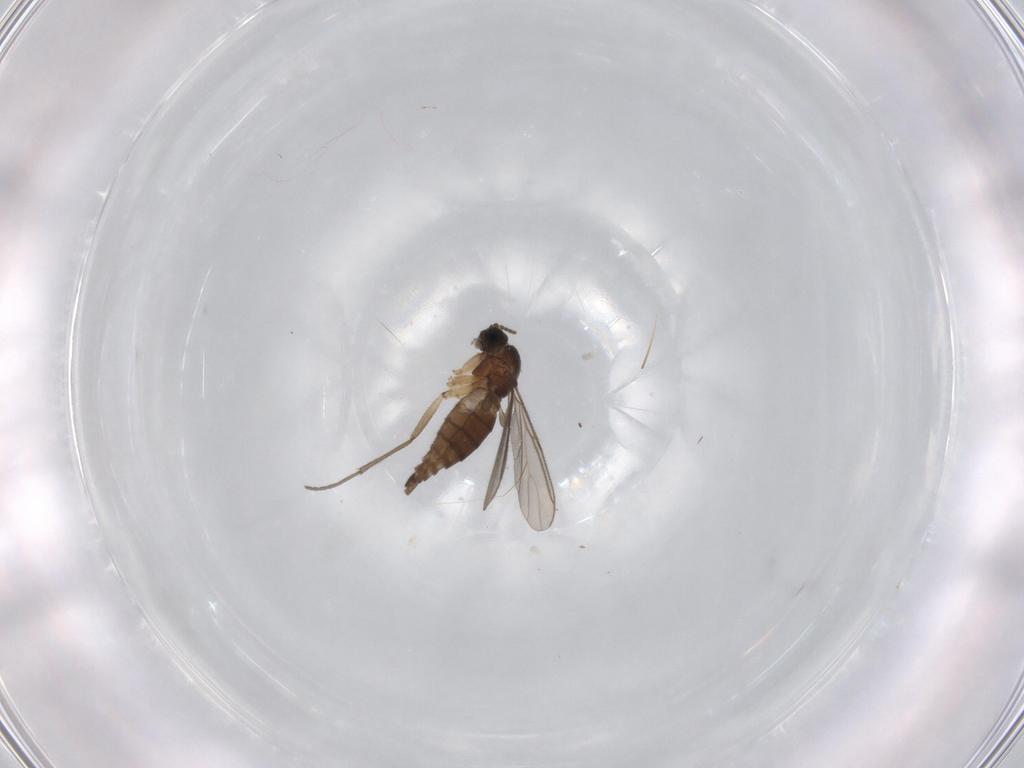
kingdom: Animalia
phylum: Arthropoda
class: Insecta
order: Diptera
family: Sciaridae
